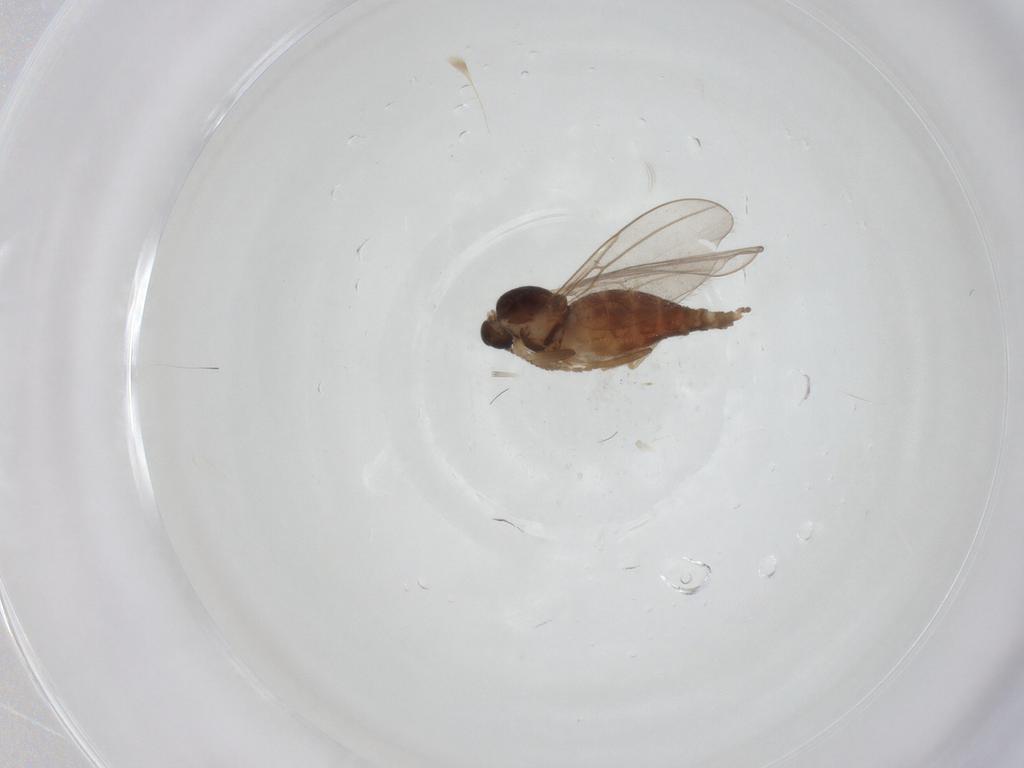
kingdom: Animalia
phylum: Arthropoda
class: Insecta
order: Diptera
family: Cecidomyiidae
